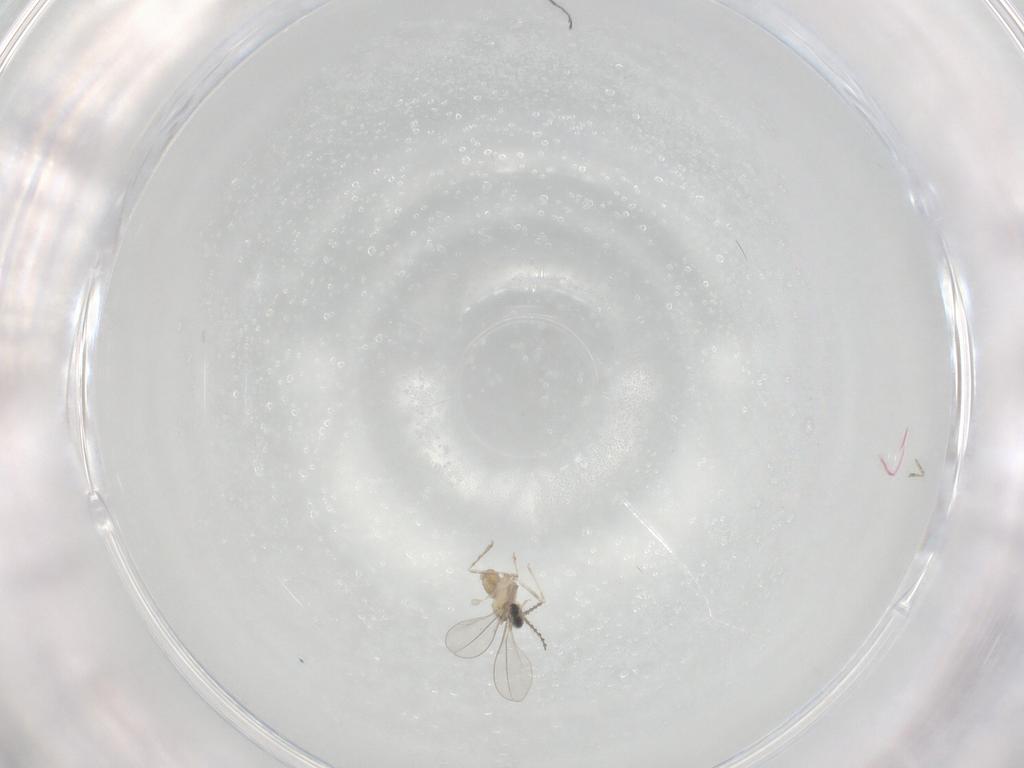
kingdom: Animalia
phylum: Arthropoda
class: Insecta
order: Diptera
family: Cecidomyiidae
